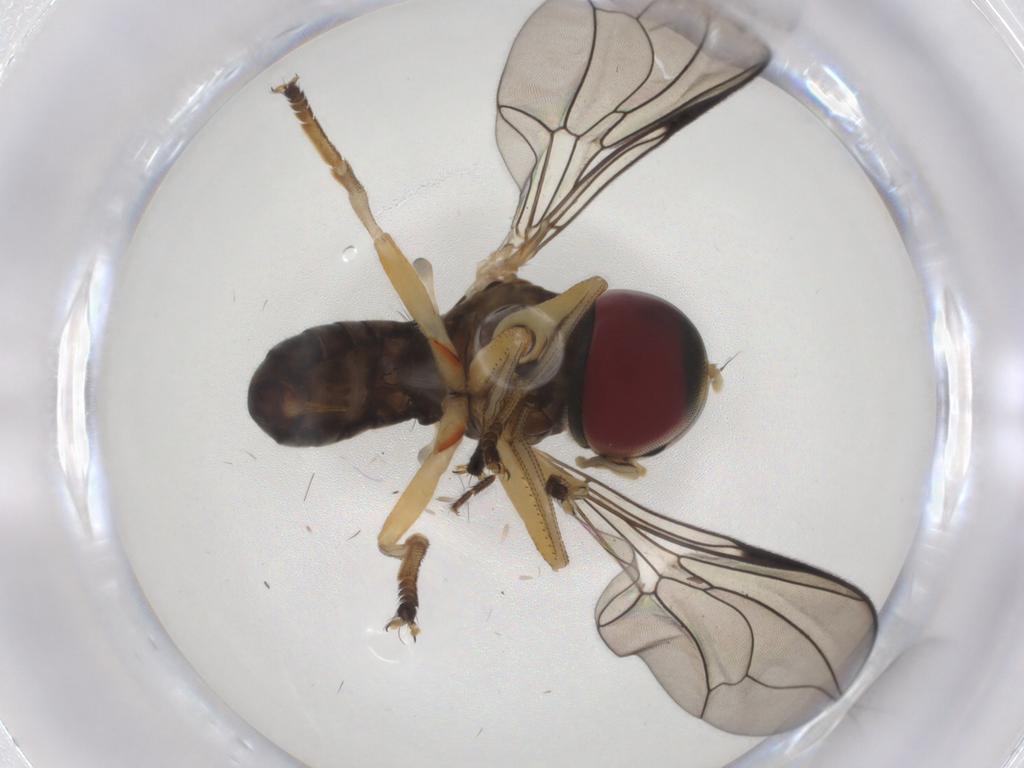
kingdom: Animalia
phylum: Arthropoda
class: Insecta
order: Diptera
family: Pipunculidae
